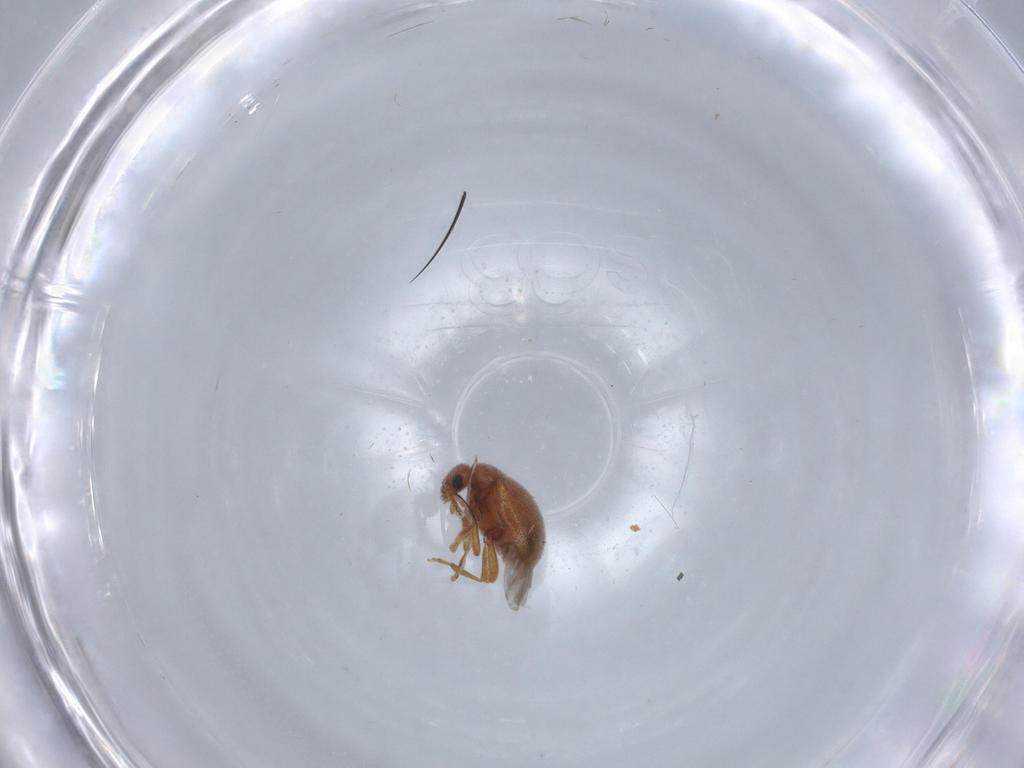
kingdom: Animalia
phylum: Arthropoda
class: Insecta
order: Coleoptera
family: Aderidae
